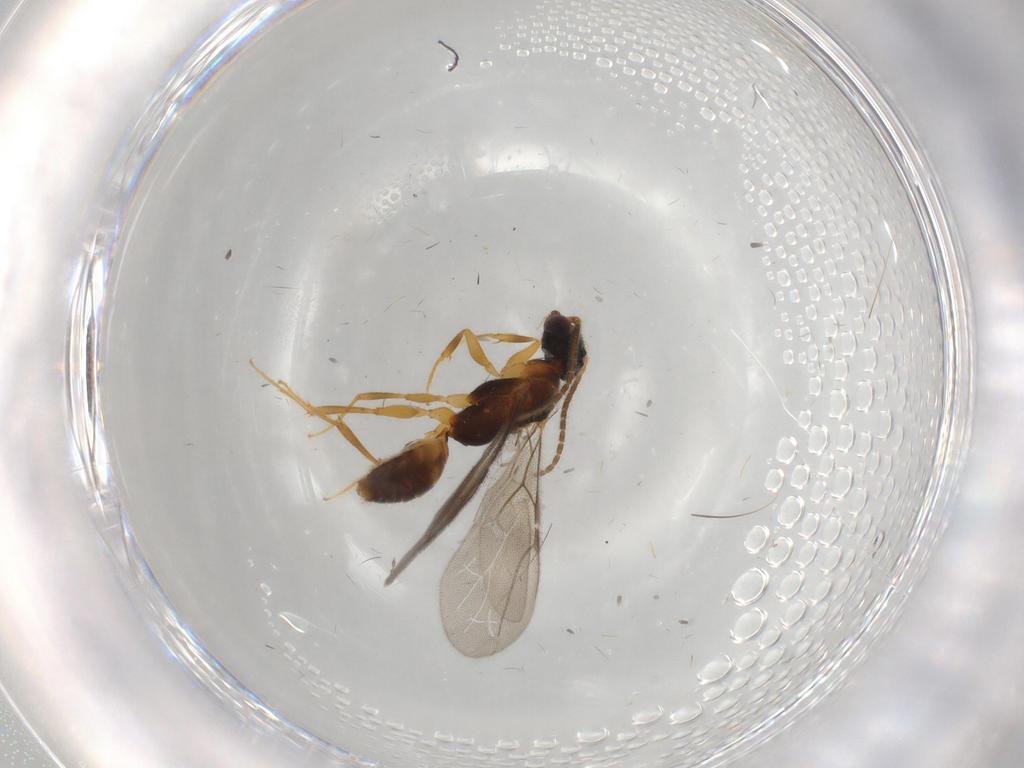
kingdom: Animalia
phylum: Arthropoda
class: Insecta
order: Hymenoptera
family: Bethylidae
